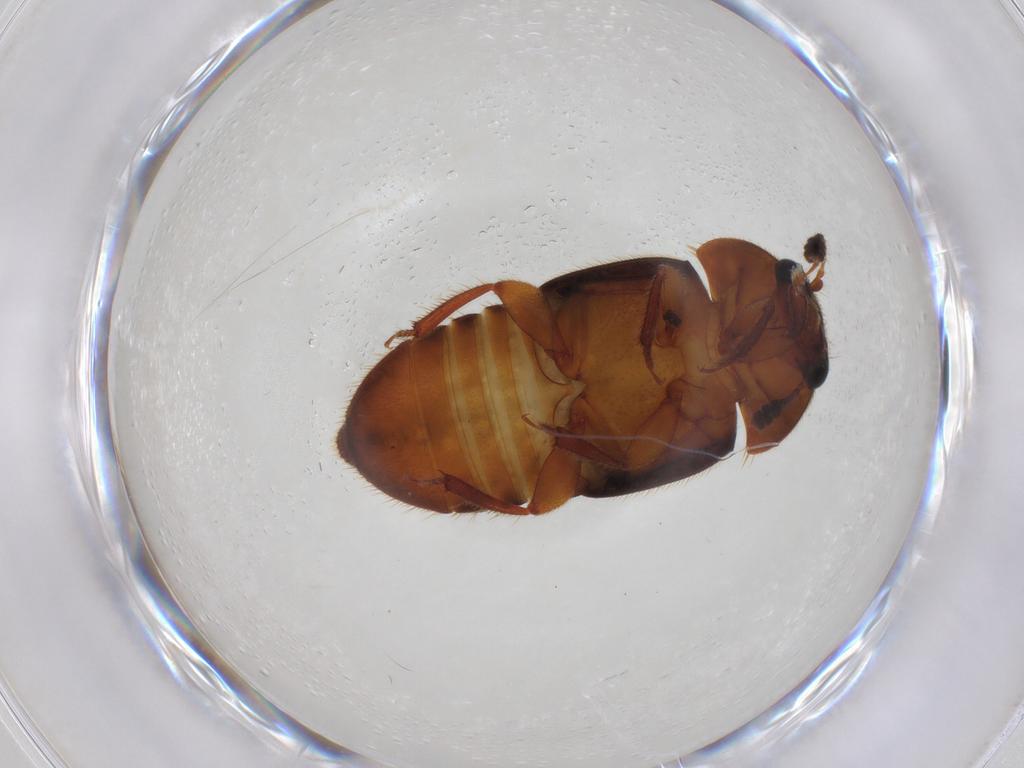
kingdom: Animalia
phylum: Arthropoda
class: Insecta
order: Coleoptera
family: Nitidulidae
